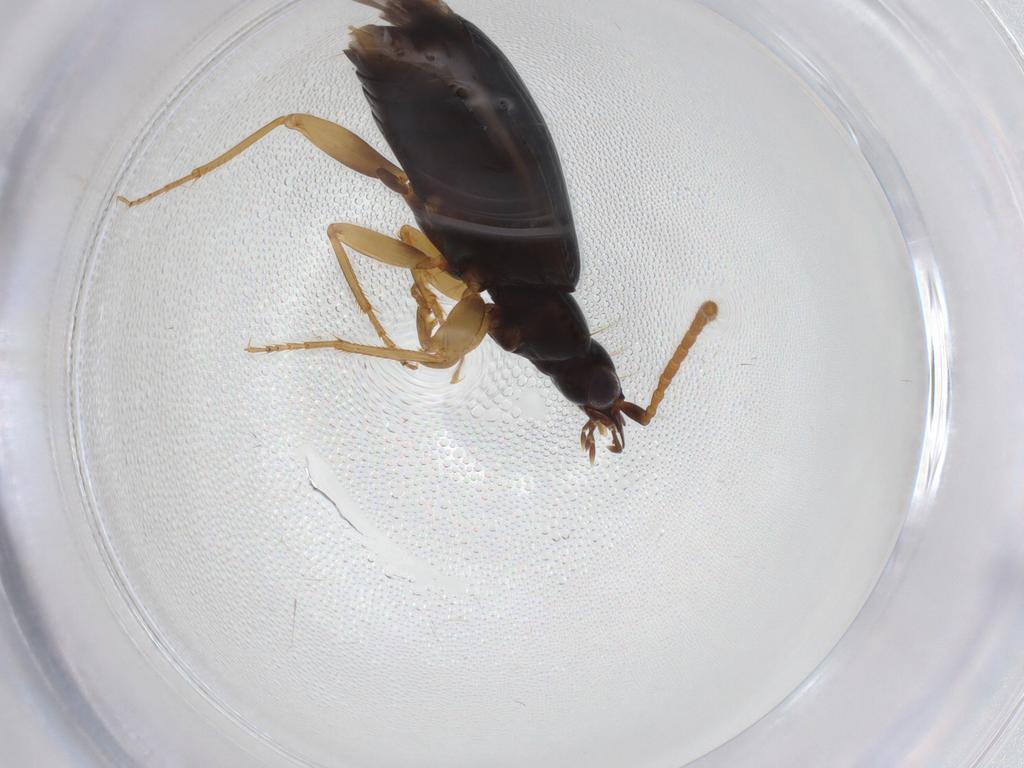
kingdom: Animalia
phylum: Arthropoda
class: Insecta
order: Coleoptera
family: Carabidae
